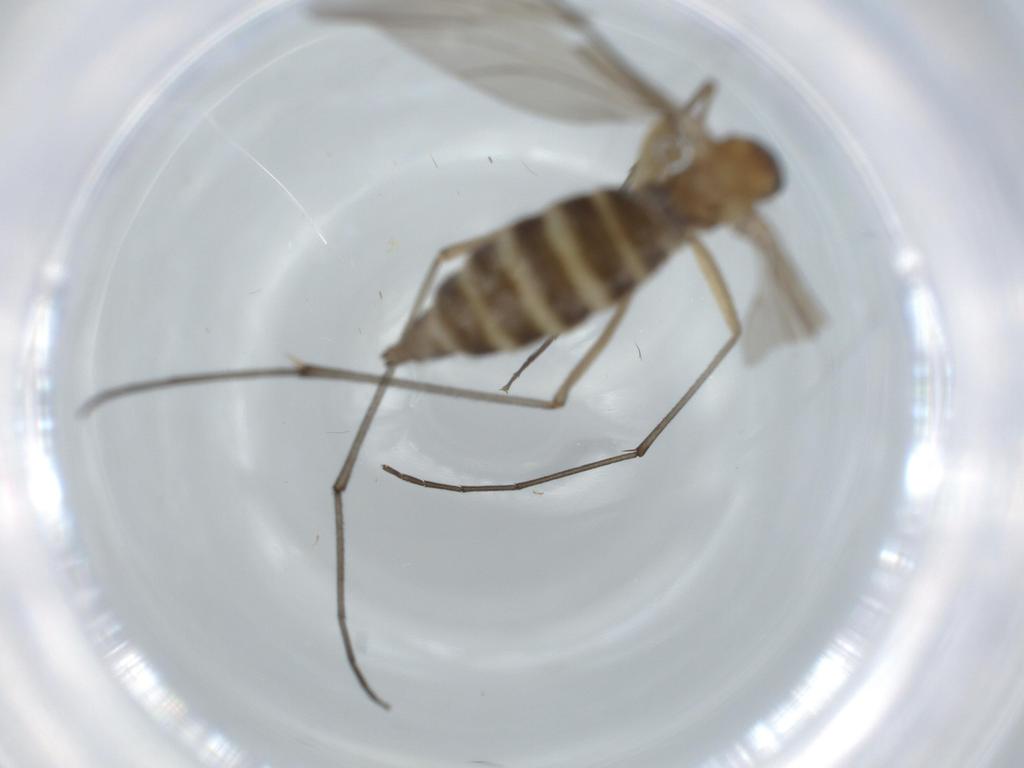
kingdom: Animalia
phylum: Arthropoda
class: Insecta
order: Diptera
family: Sciaridae
